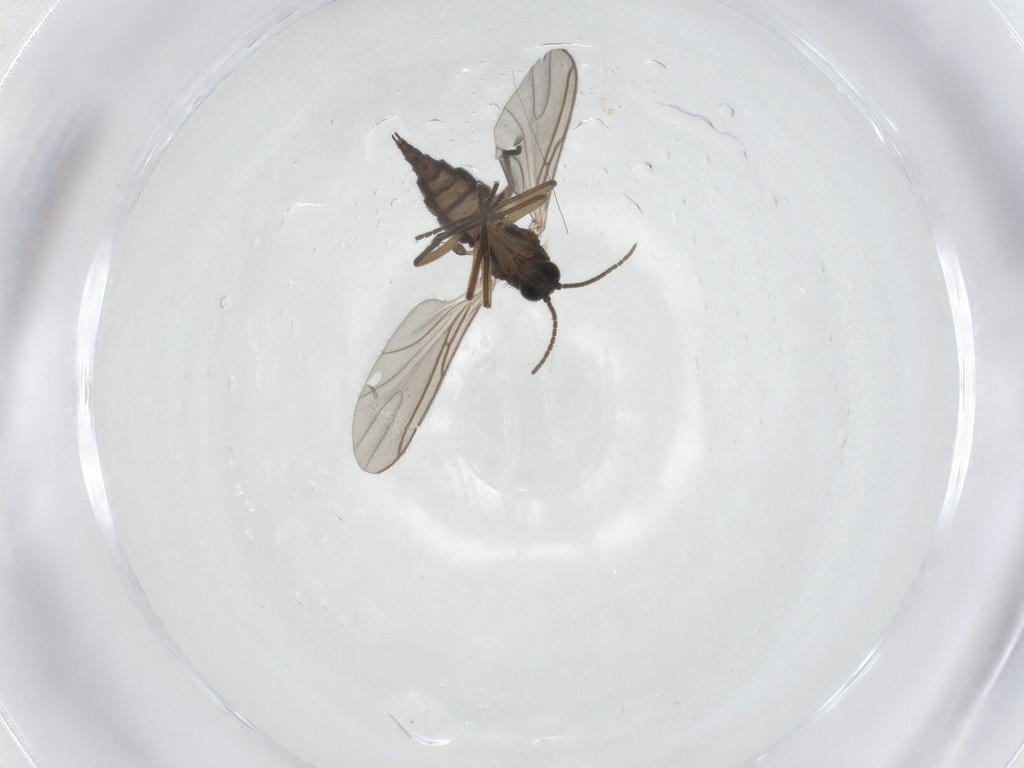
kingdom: Animalia
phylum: Arthropoda
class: Insecta
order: Diptera
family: Sciaridae
